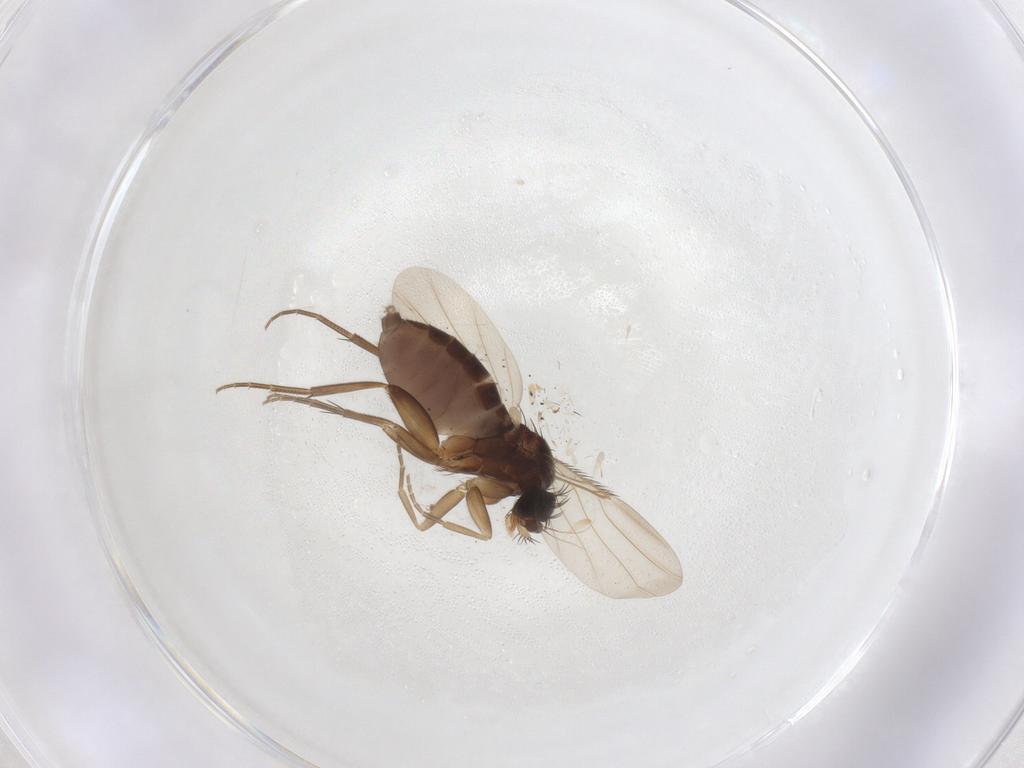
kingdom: Animalia
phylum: Arthropoda
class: Insecta
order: Diptera
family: Phoridae
